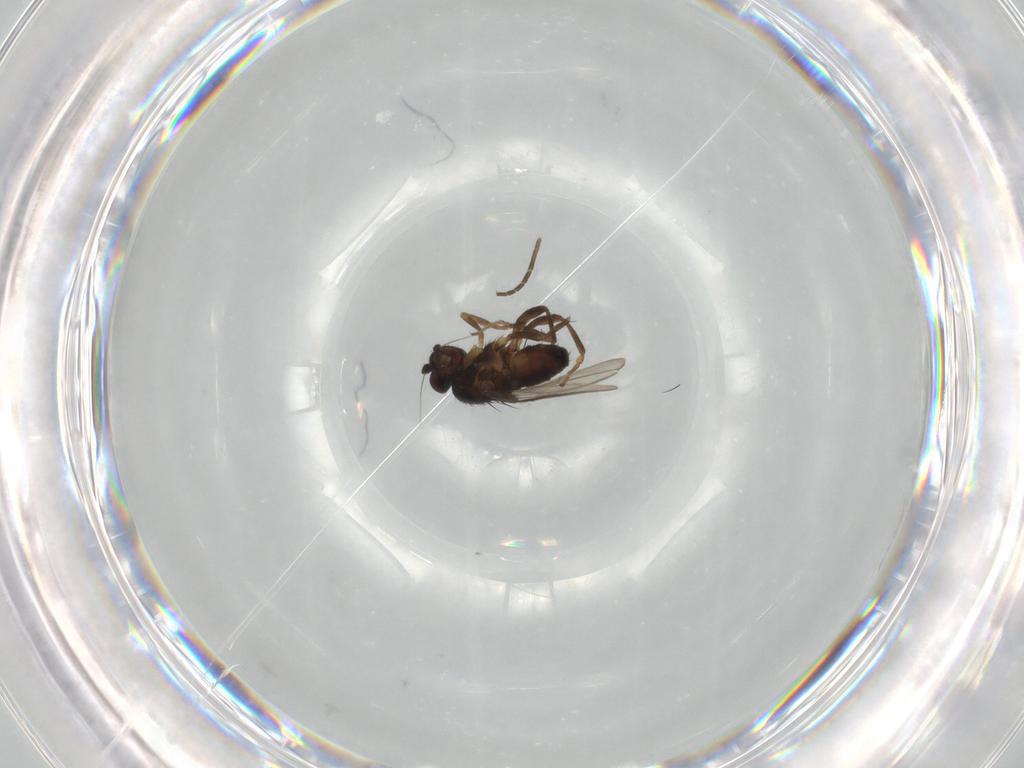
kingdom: Animalia
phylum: Arthropoda
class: Insecta
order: Diptera
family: Sphaeroceridae
